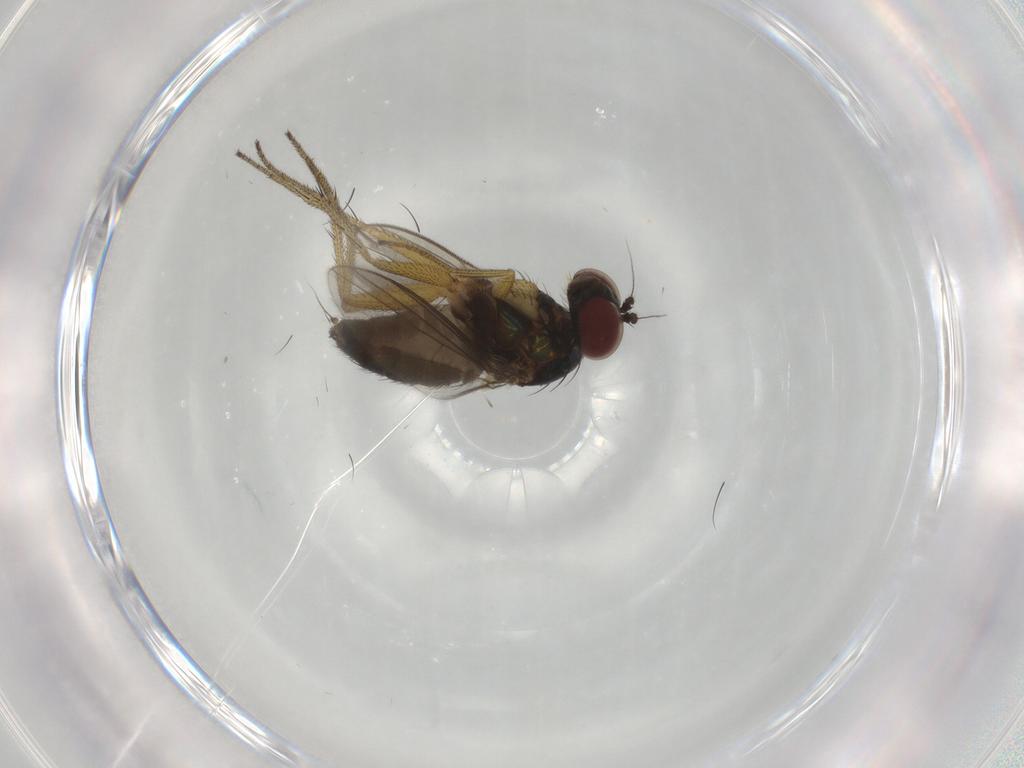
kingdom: Animalia
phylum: Arthropoda
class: Insecta
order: Diptera
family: Dolichopodidae
